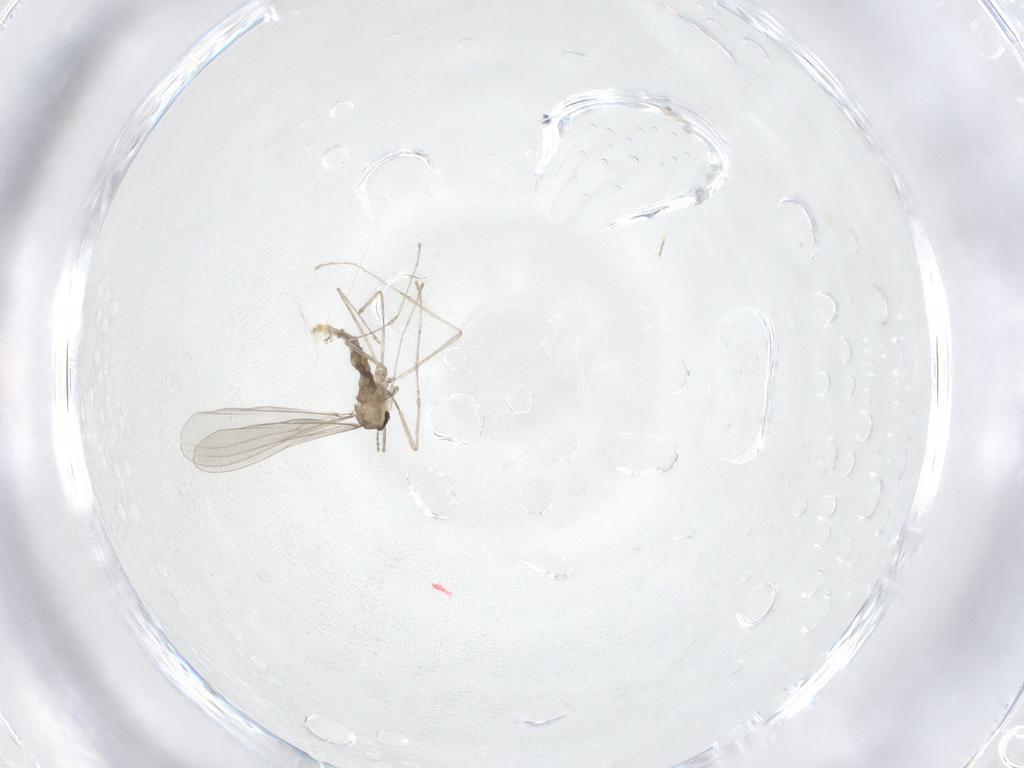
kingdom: Animalia
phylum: Arthropoda
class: Insecta
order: Diptera
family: Cecidomyiidae
